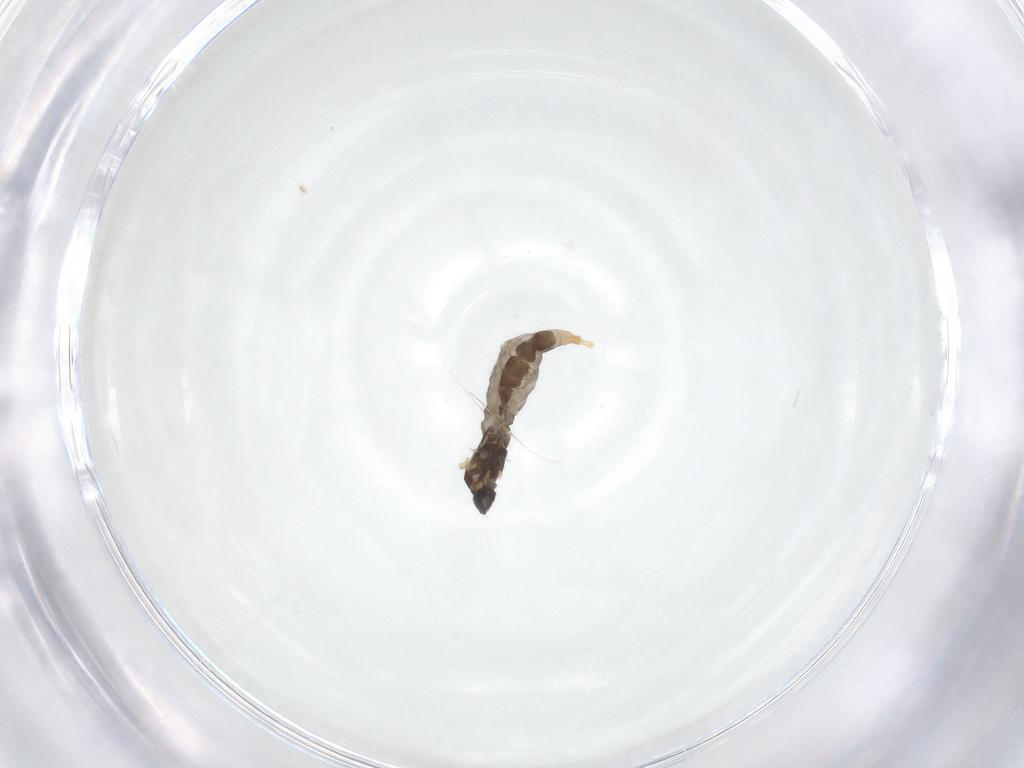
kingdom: Animalia
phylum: Arthropoda
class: Insecta
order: Diptera
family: Cecidomyiidae
